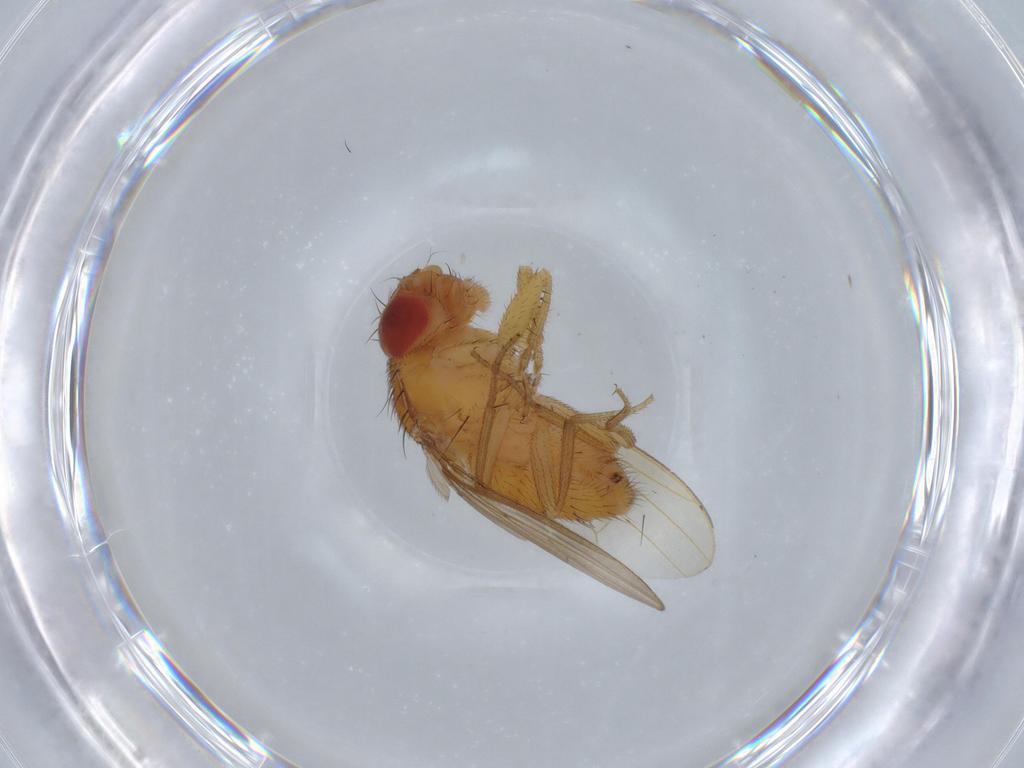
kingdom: Animalia
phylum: Arthropoda
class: Insecta
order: Diptera
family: Drosophilidae
